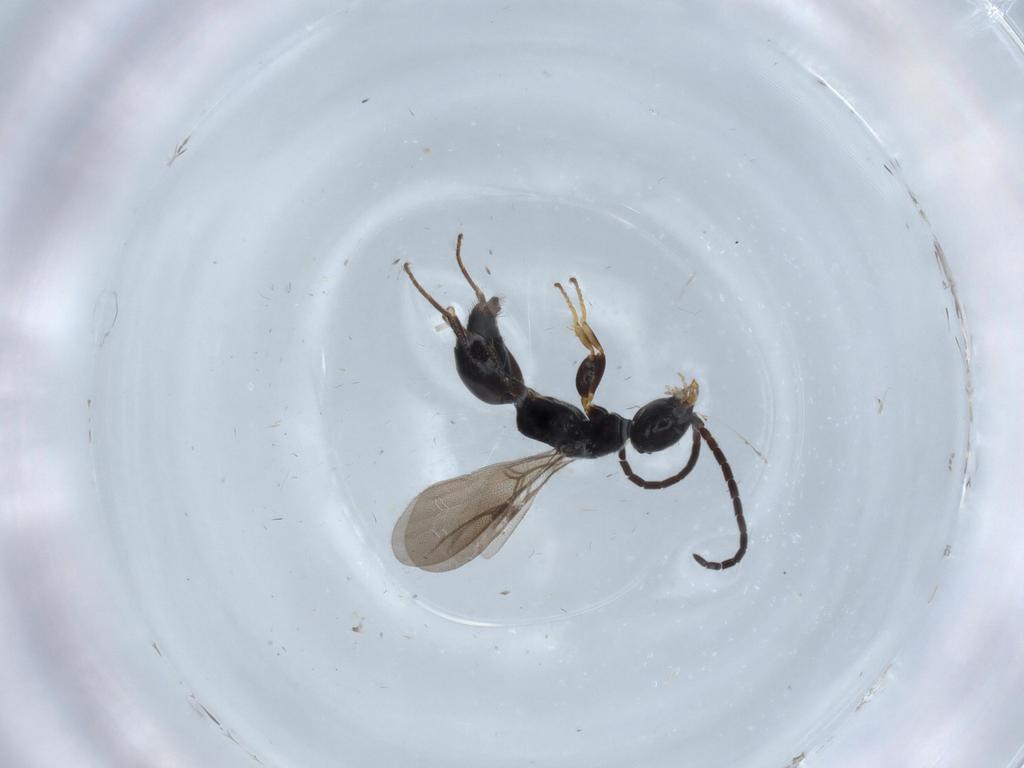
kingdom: Animalia
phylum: Arthropoda
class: Insecta
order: Hymenoptera
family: Bethylidae
